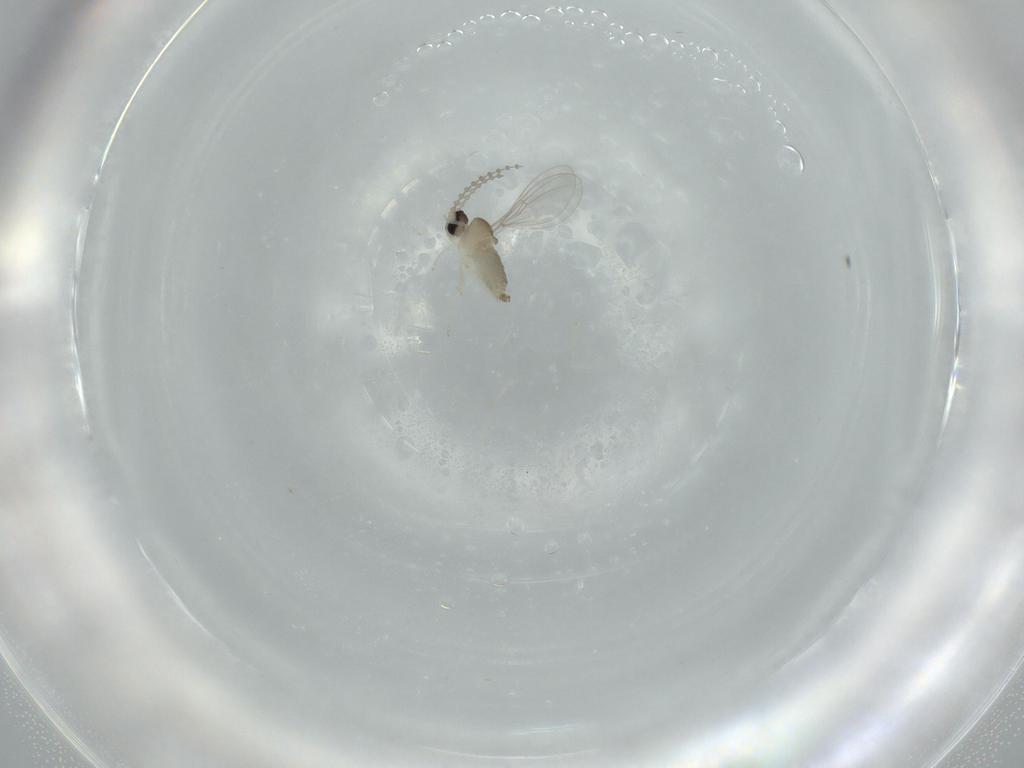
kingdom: Animalia
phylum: Arthropoda
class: Insecta
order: Diptera
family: Cecidomyiidae
